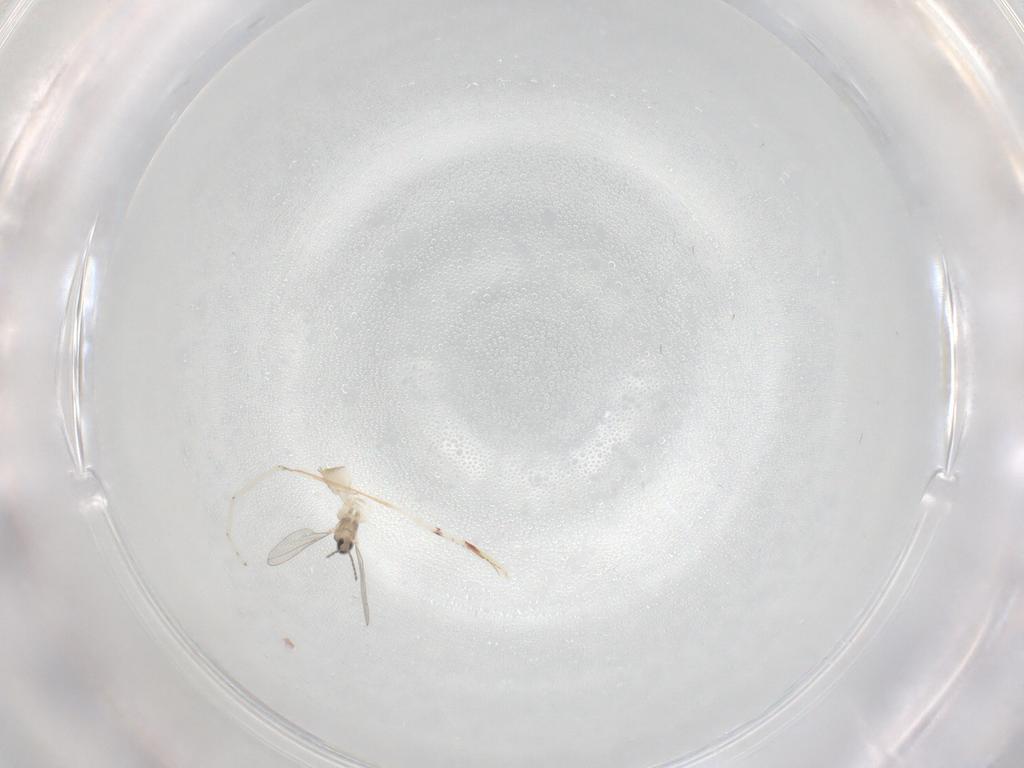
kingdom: Animalia
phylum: Arthropoda
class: Insecta
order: Diptera
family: Cecidomyiidae
